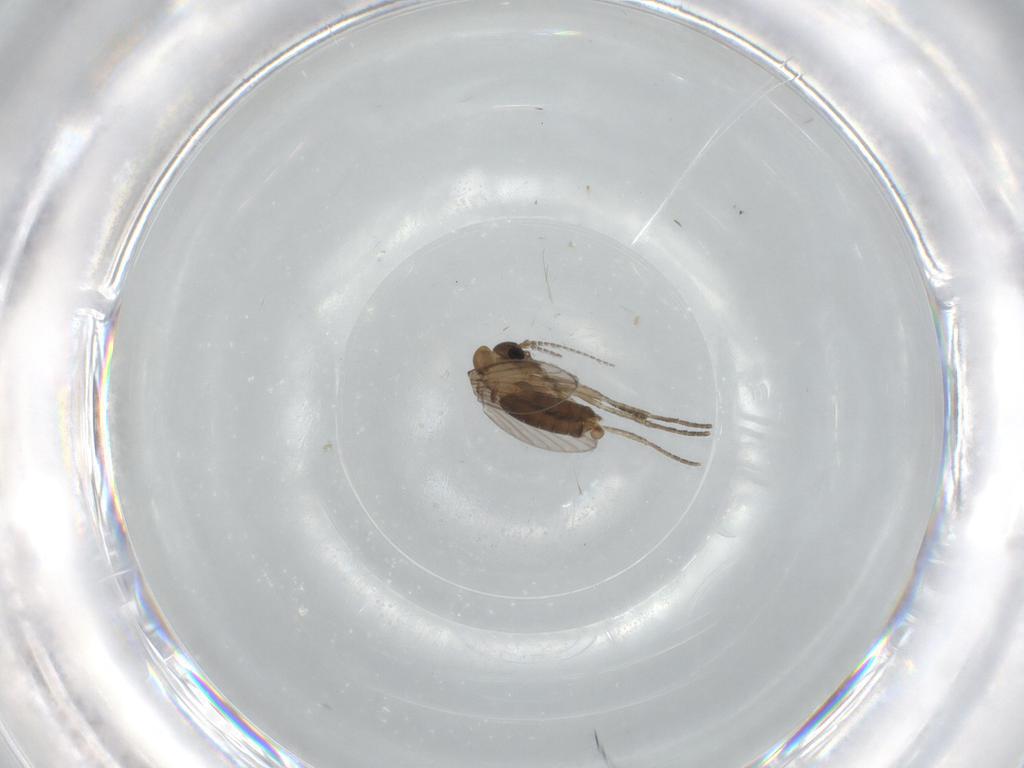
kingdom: Animalia
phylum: Arthropoda
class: Insecta
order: Diptera
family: Psychodidae
